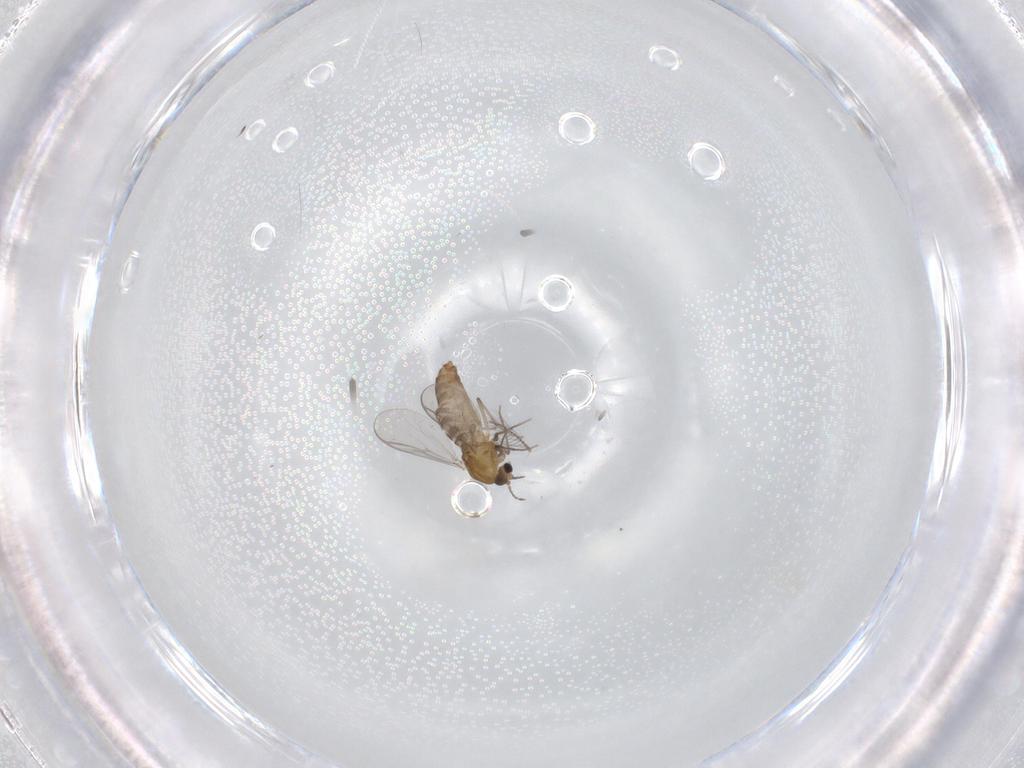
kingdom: Animalia
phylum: Arthropoda
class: Insecta
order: Diptera
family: Chironomidae
